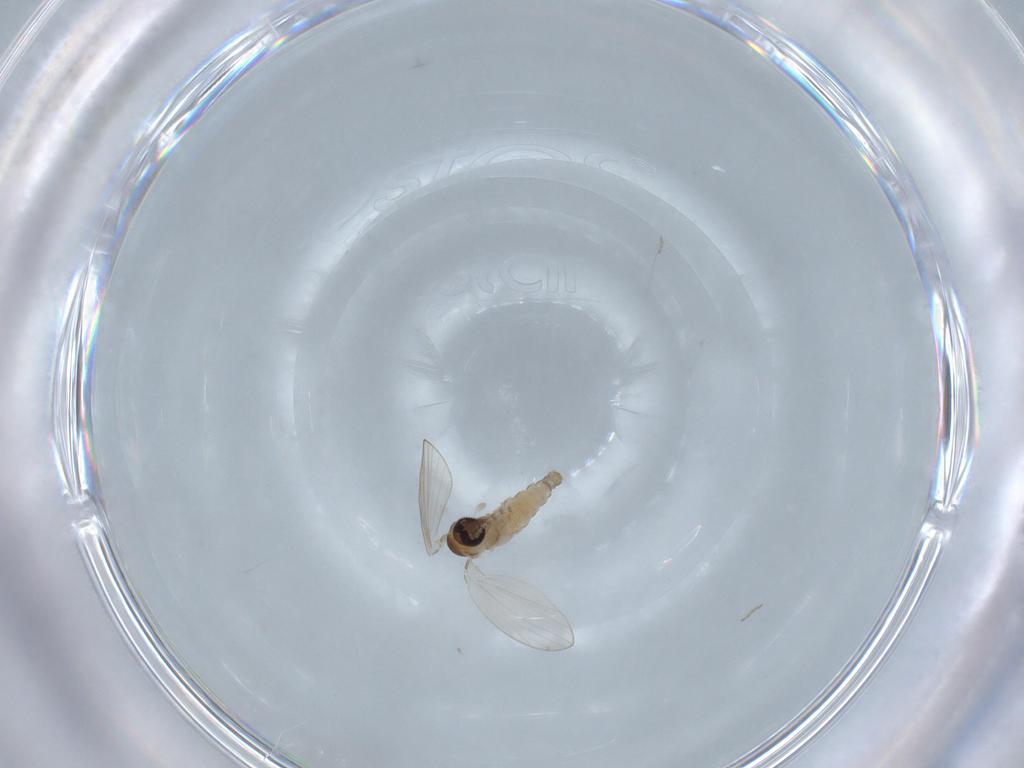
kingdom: Animalia
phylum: Arthropoda
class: Insecta
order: Diptera
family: Psychodidae
